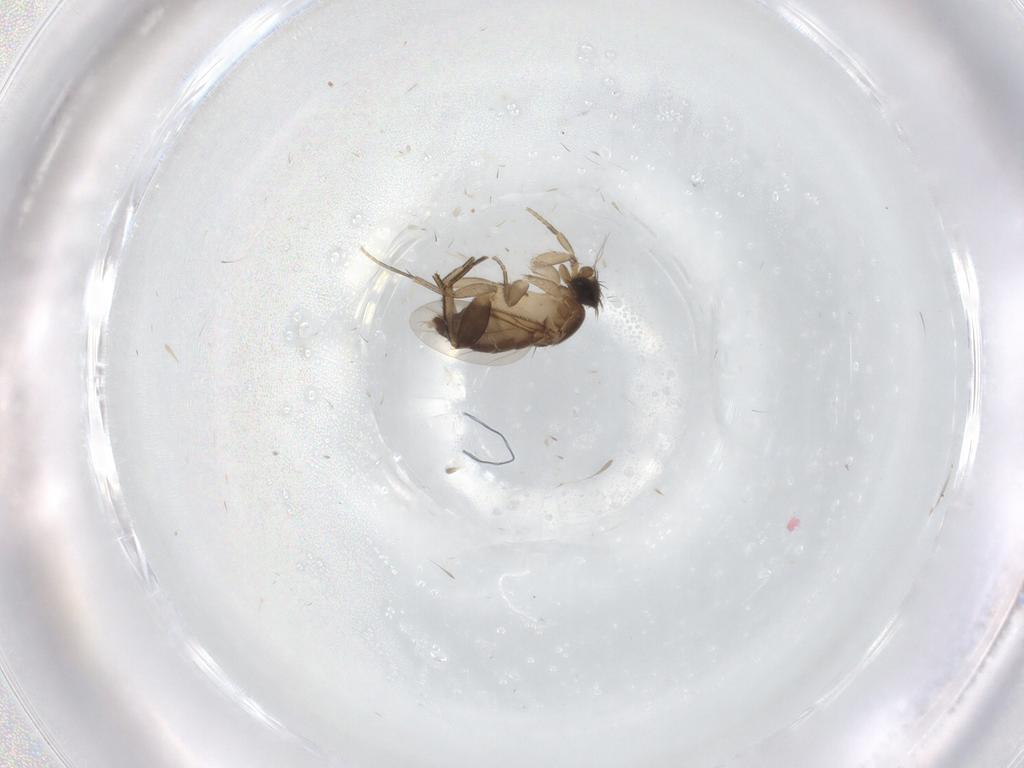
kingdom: Animalia
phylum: Arthropoda
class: Insecta
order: Diptera
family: Phoridae
